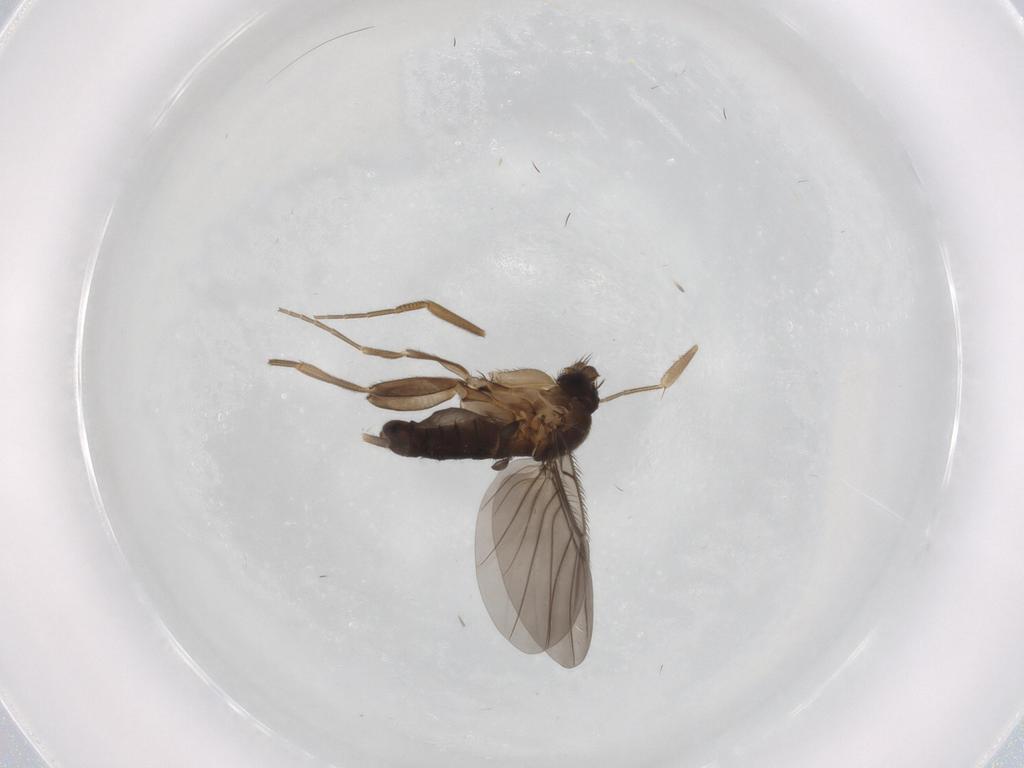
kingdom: Animalia
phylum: Arthropoda
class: Insecta
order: Diptera
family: Phoridae
